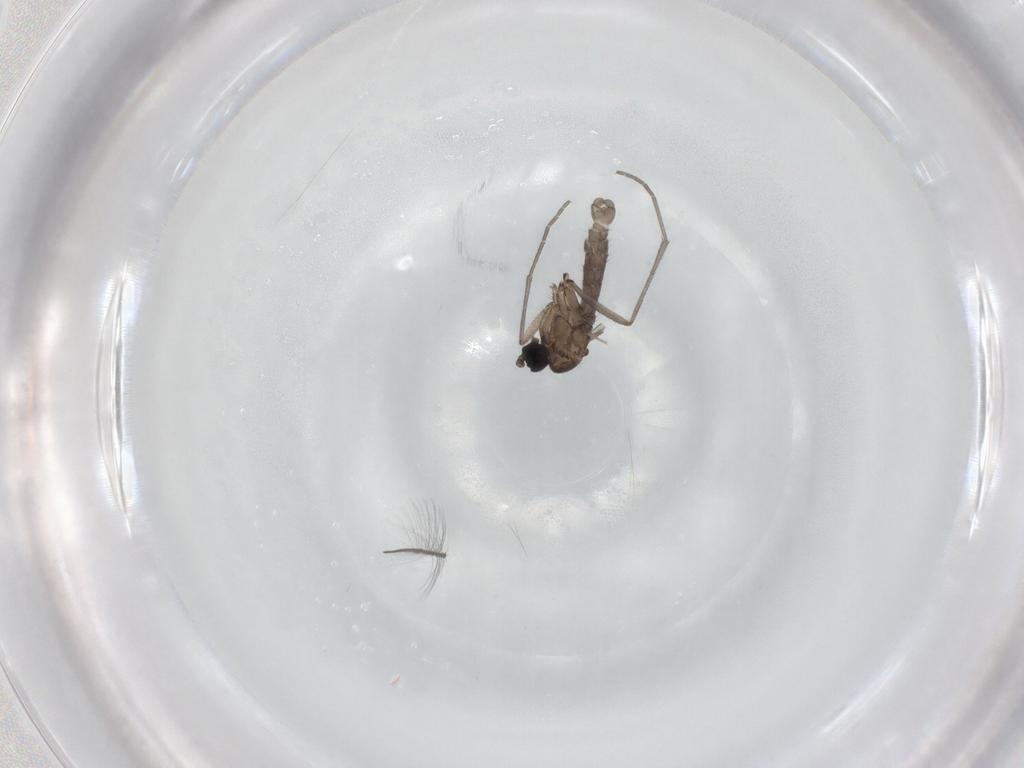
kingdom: Animalia
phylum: Arthropoda
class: Insecta
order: Diptera
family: Sciaridae
